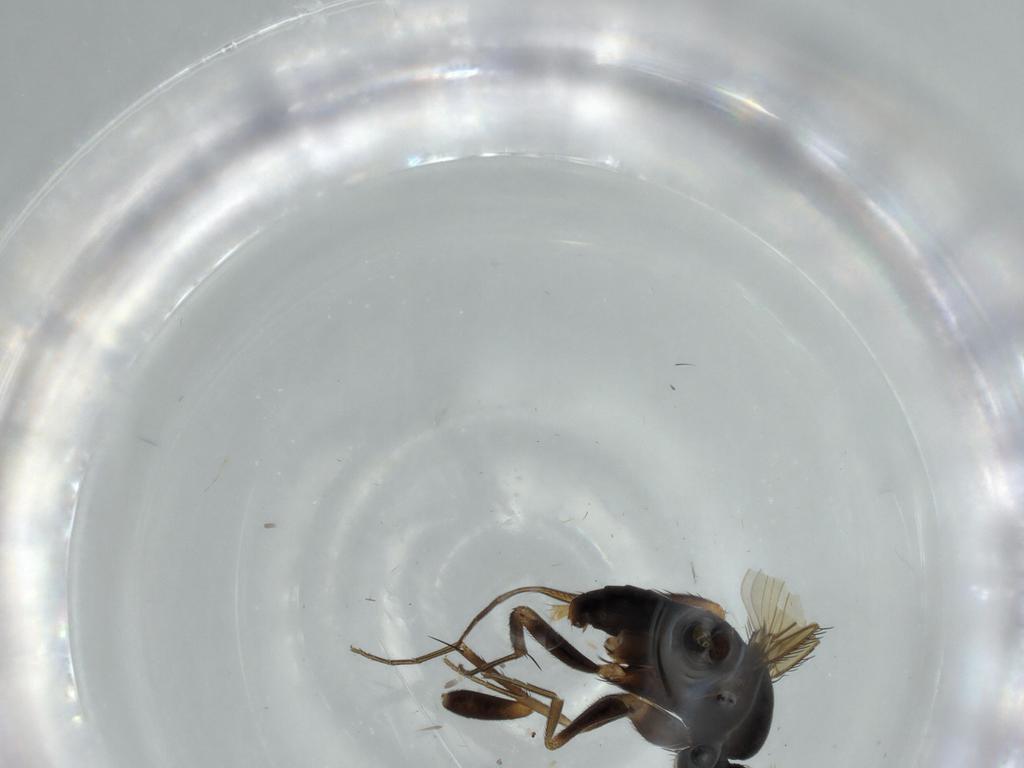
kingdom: Animalia
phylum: Arthropoda
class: Insecta
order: Diptera
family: Phoridae
